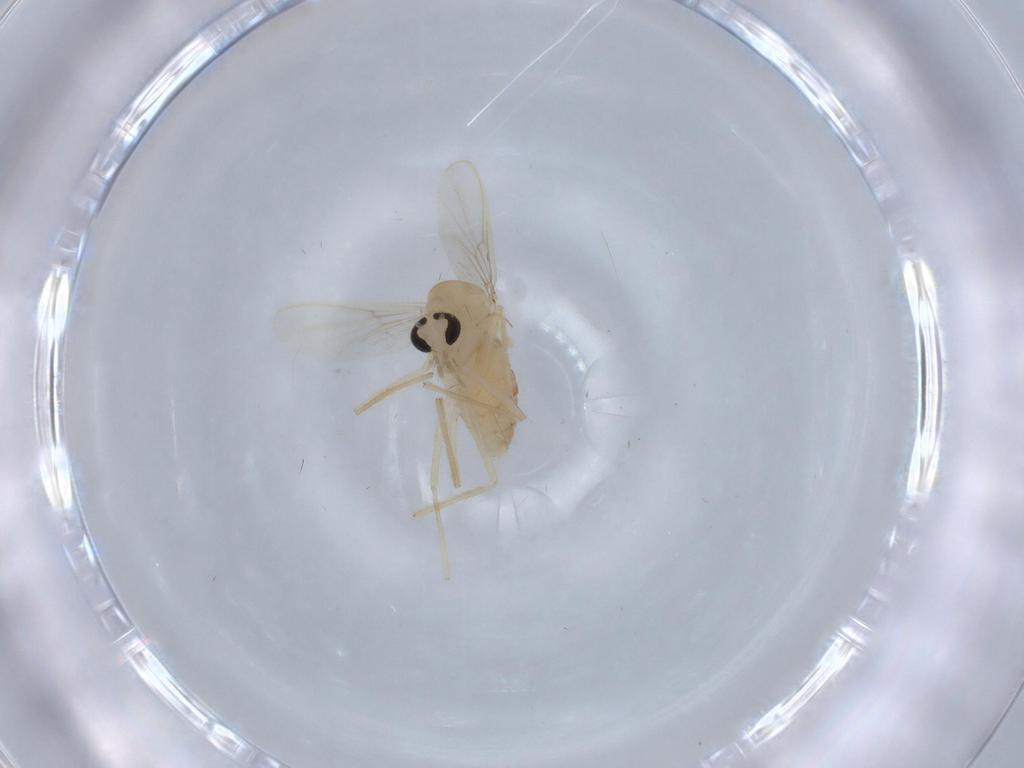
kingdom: Animalia
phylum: Arthropoda
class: Insecta
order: Diptera
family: Chironomidae
